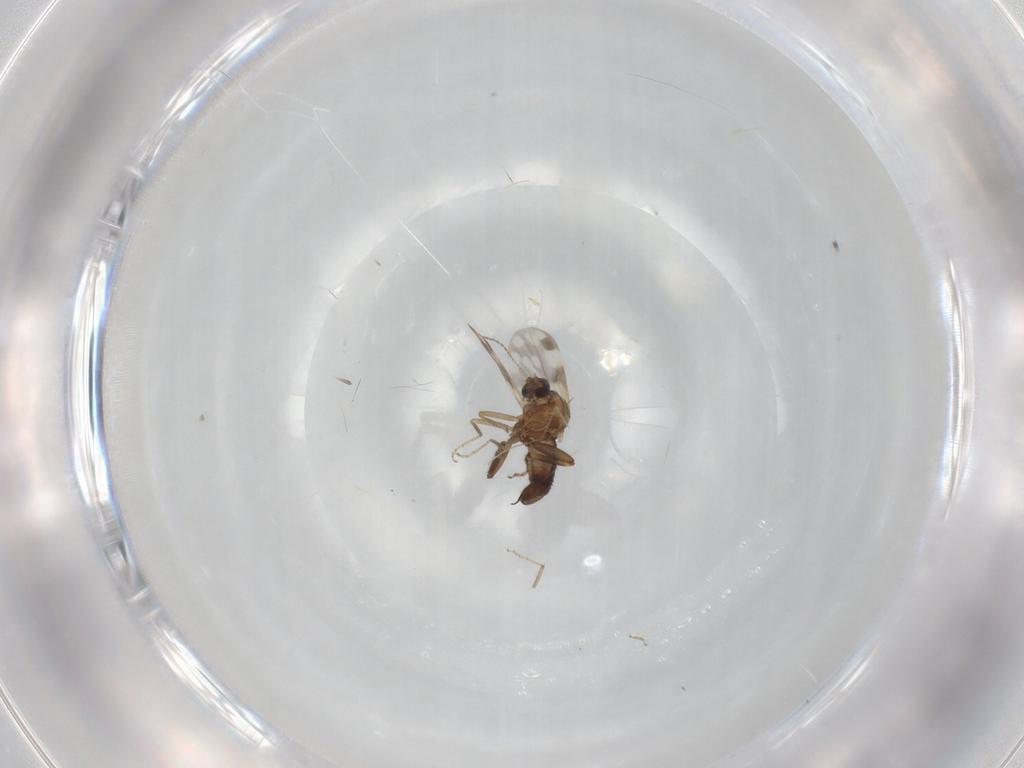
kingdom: Animalia
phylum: Arthropoda
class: Insecta
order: Diptera
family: Ceratopogonidae
